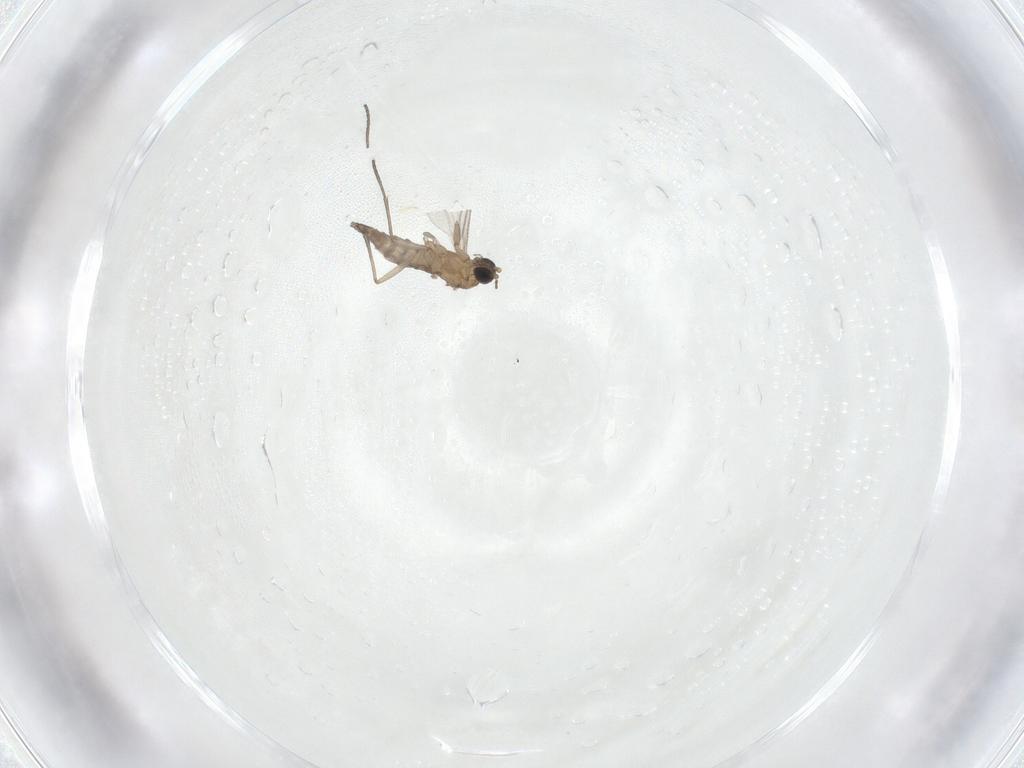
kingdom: Animalia
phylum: Arthropoda
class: Insecta
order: Diptera
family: Sciaridae
